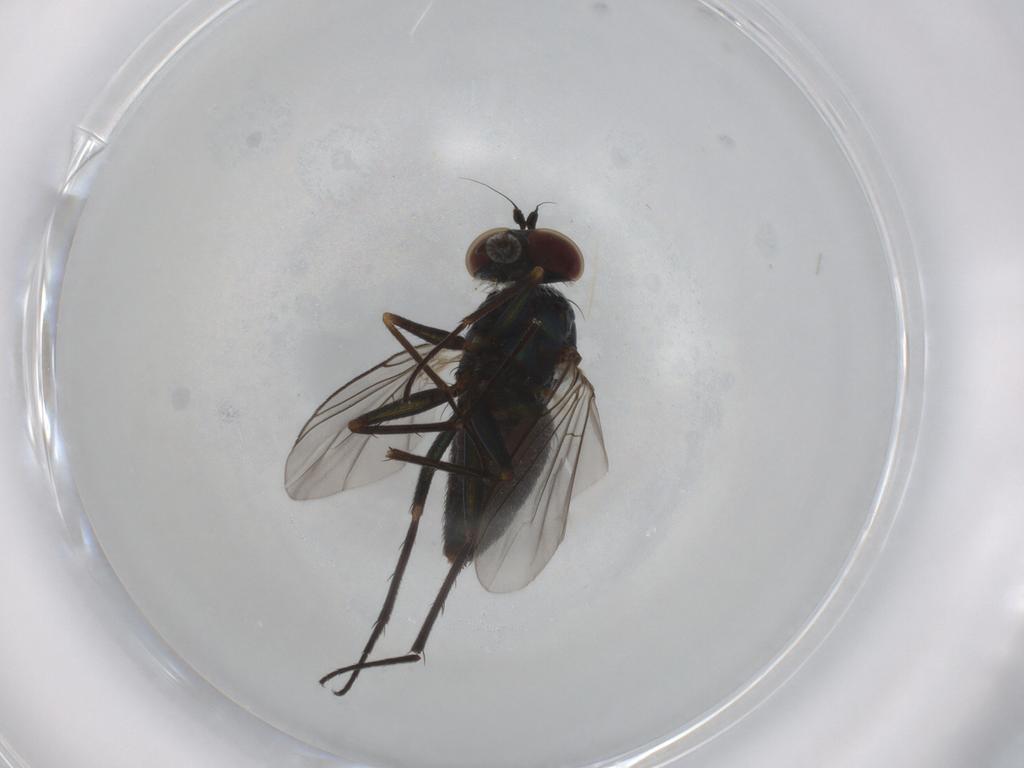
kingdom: Animalia
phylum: Arthropoda
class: Insecta
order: Diptera
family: Dolichopodidae
